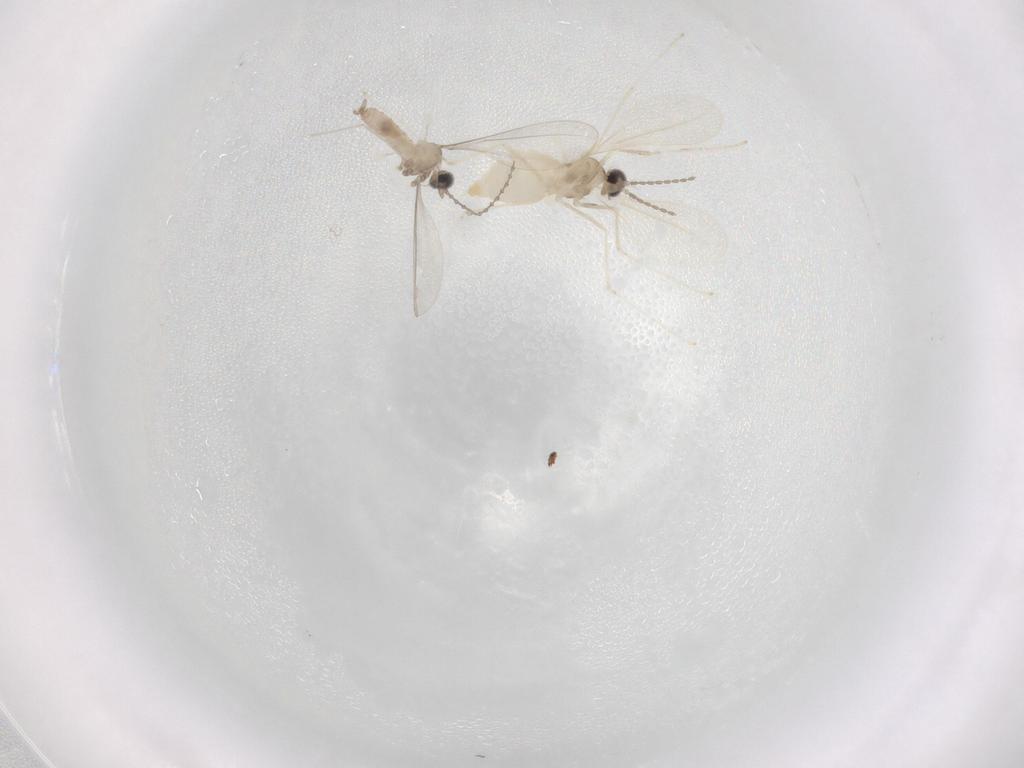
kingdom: Animalia
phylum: Arthropoda
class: Insecta
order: Diptera
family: Cecidomyiidae
